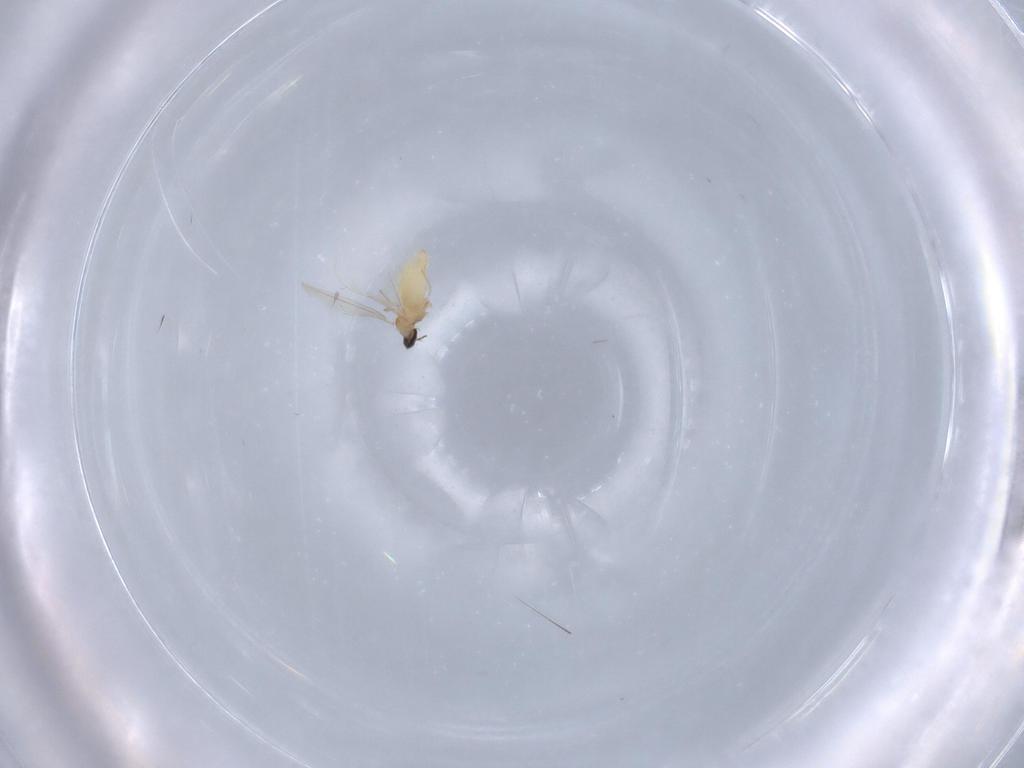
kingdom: Animalia
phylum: Arthropoda
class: Insecta
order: Diptera
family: Cecidomyiidae
